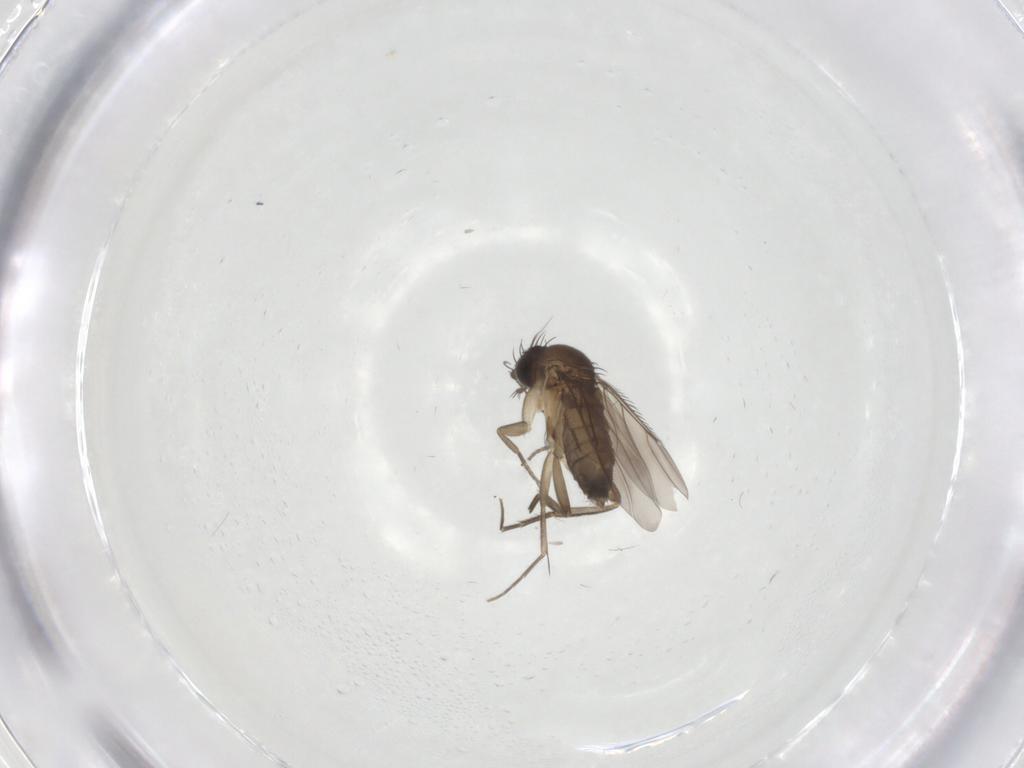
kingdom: Animalia
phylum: Arthropoda
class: Insecta
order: Diptera
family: Phoridae
